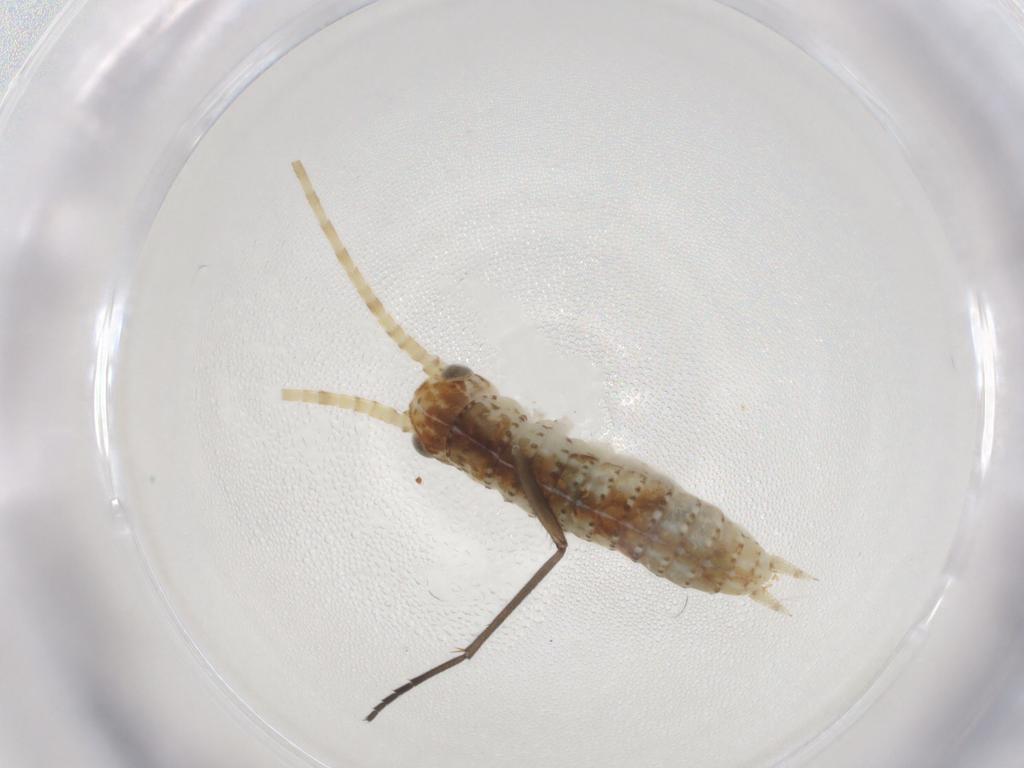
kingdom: Animalia
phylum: Arthropoda
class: Insecta
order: Orthoptera
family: Gryllidae
